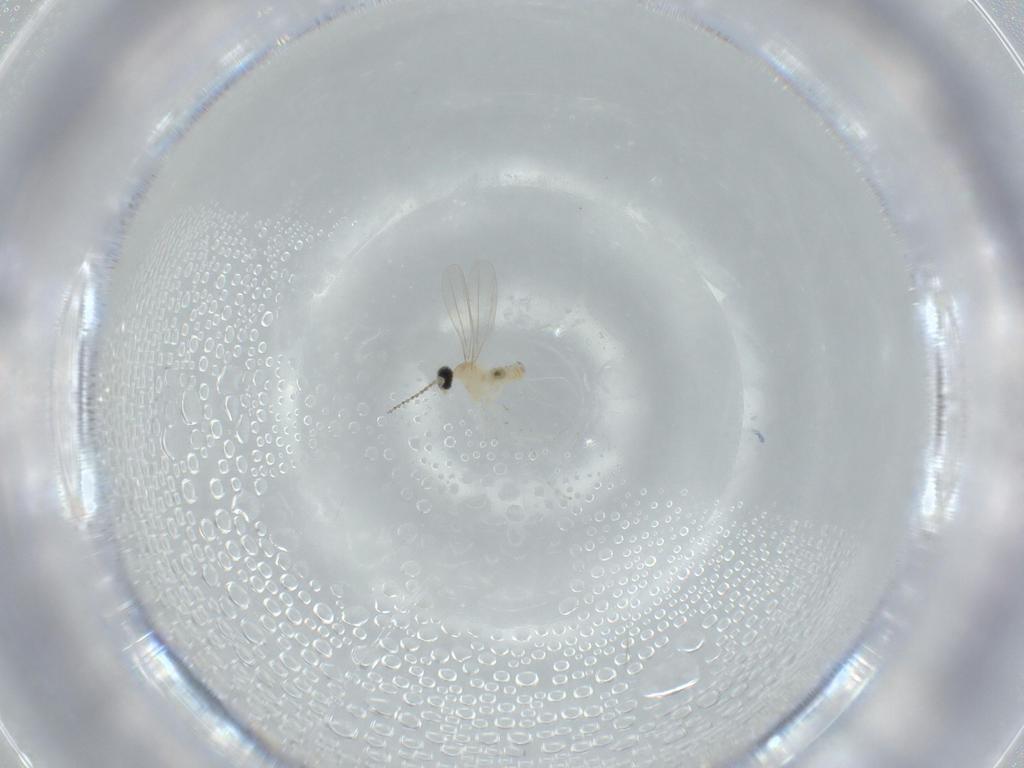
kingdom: Animalia
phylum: Arthropoda
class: Insecta
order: Diptera
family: Cecidomyiidae
